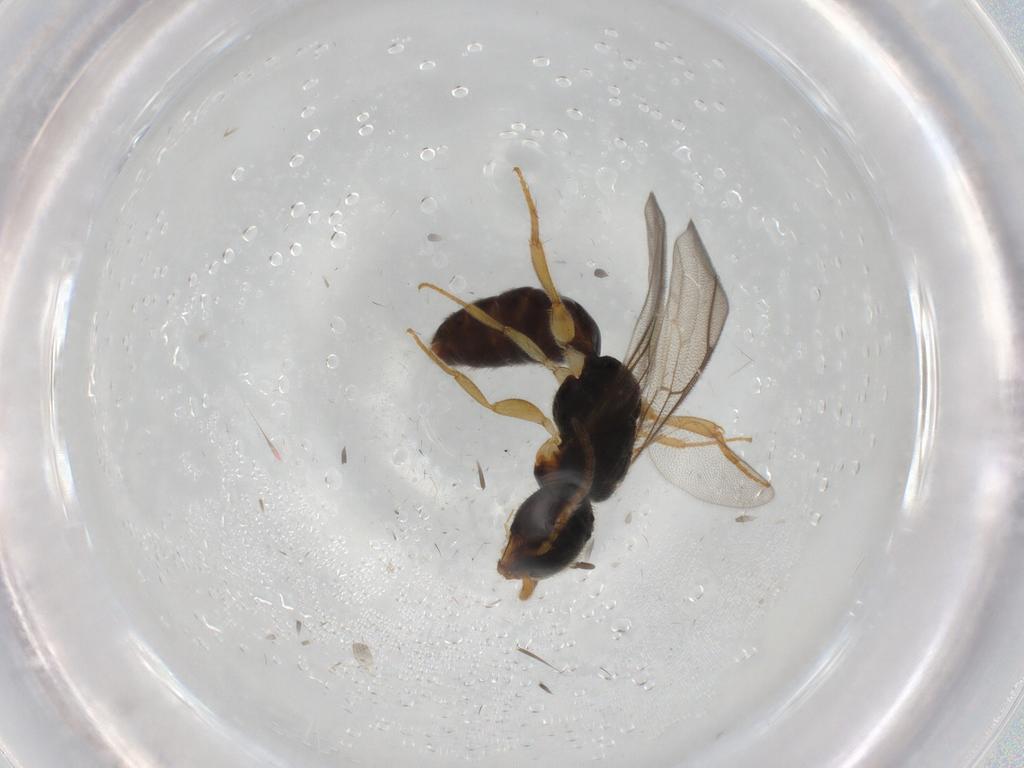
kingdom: Animalia
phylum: Arthropoda
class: Insecta
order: Hymenoptera
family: Bethylidae
